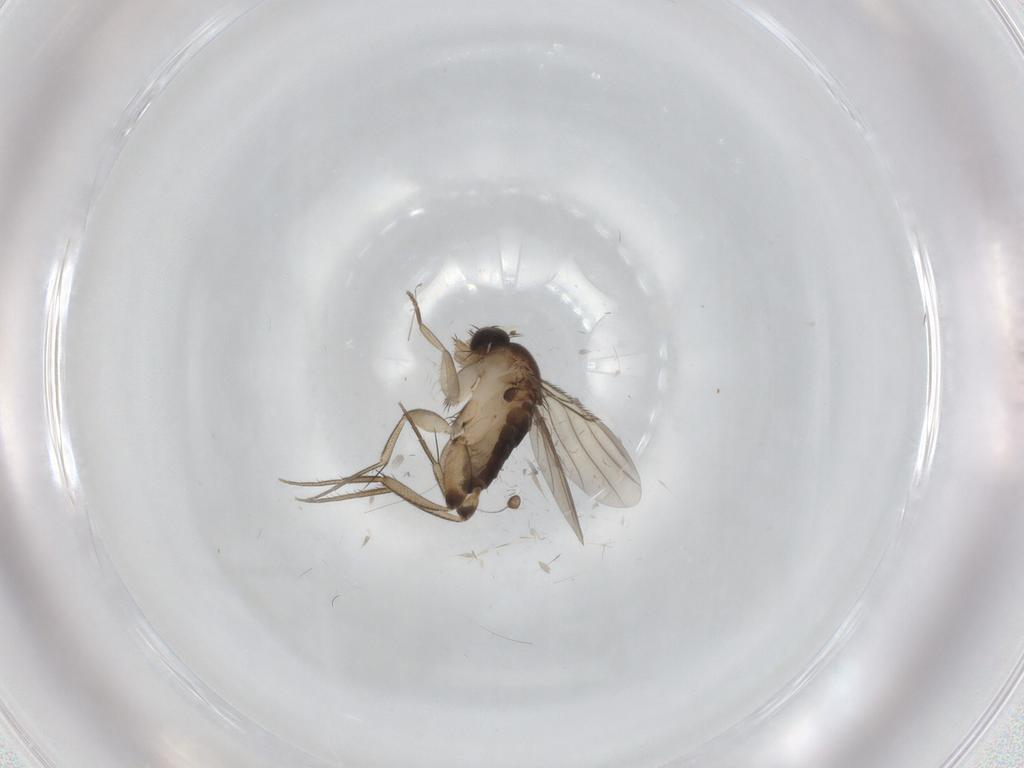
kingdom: Animalia
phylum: Arthropoda
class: Insecta
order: Diptera
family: Phoridae
